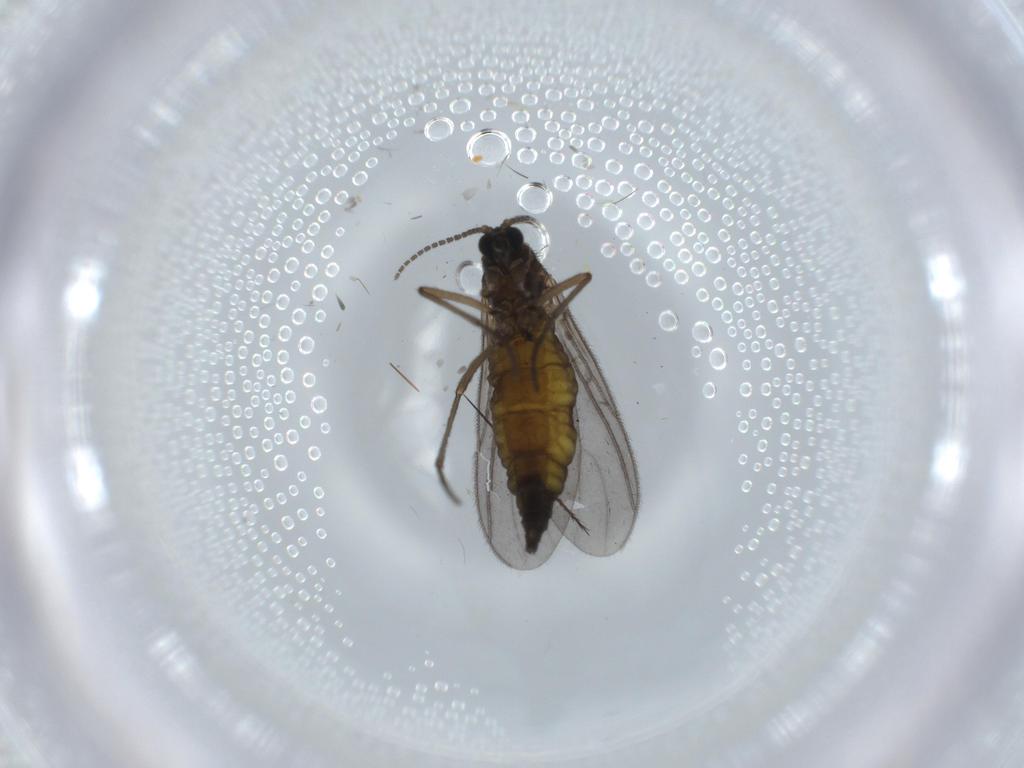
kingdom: Animalia
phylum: Arthropoda
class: Insecta
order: Diptera
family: Sciaridae
